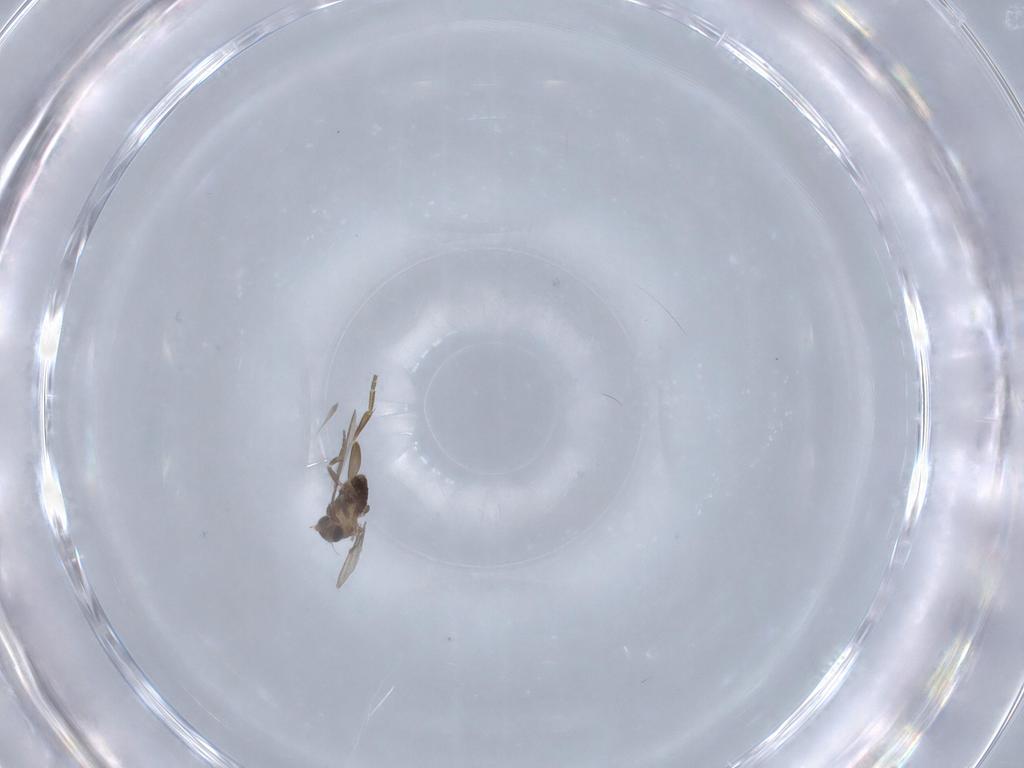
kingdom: Animalia
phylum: Arthropoda
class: Insecta
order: Diptera
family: Phoridae
